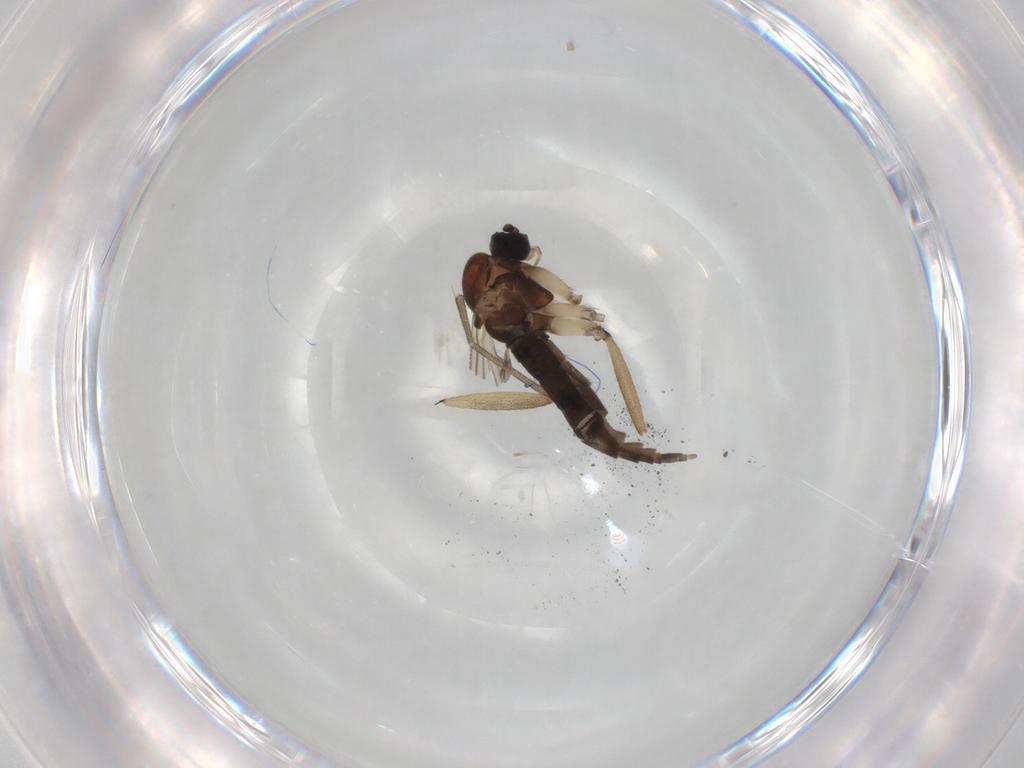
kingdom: Animalia
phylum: Arthropoda
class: Insecta
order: Diptera
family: Sciaridae
